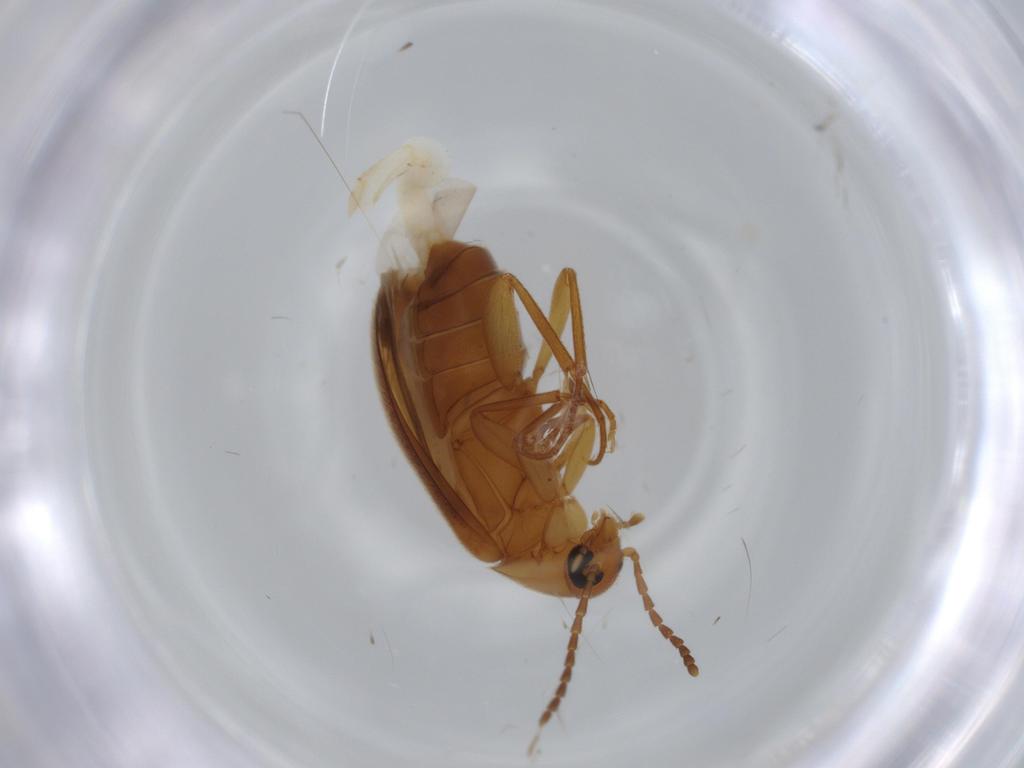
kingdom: Animalia
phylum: Arthropoda
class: Insecta
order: Coleoptera
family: Scraptiidae
